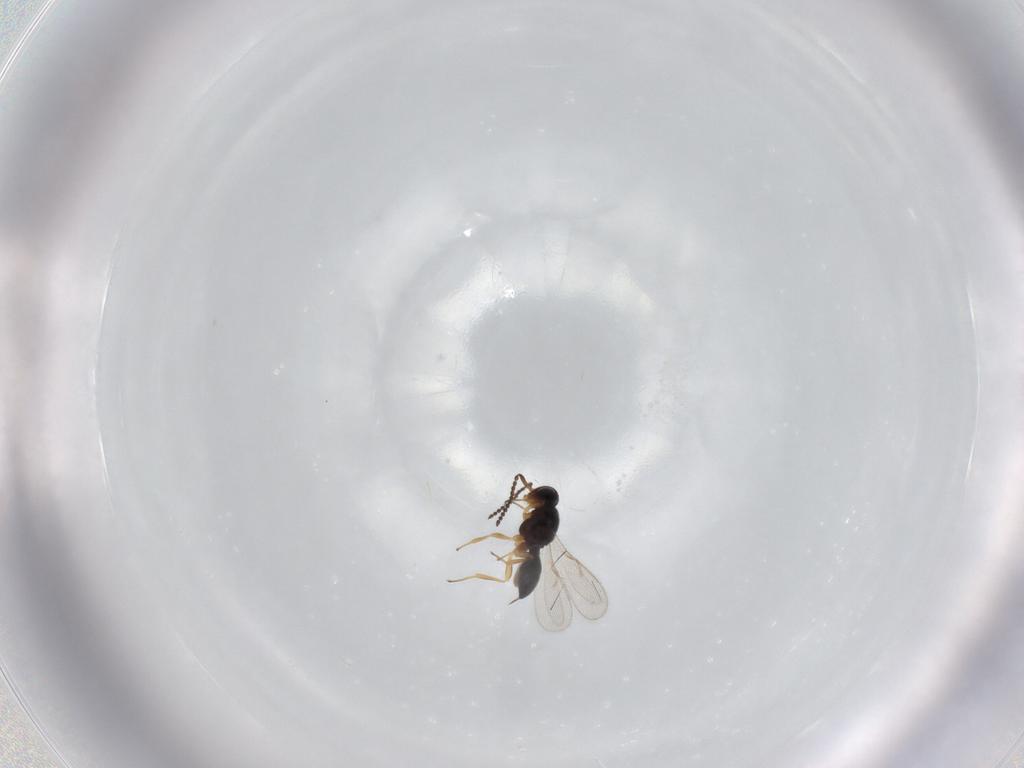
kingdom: Animalia
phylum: Arthropoda
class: Insecta
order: Hymenoptera
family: Scelionidae
